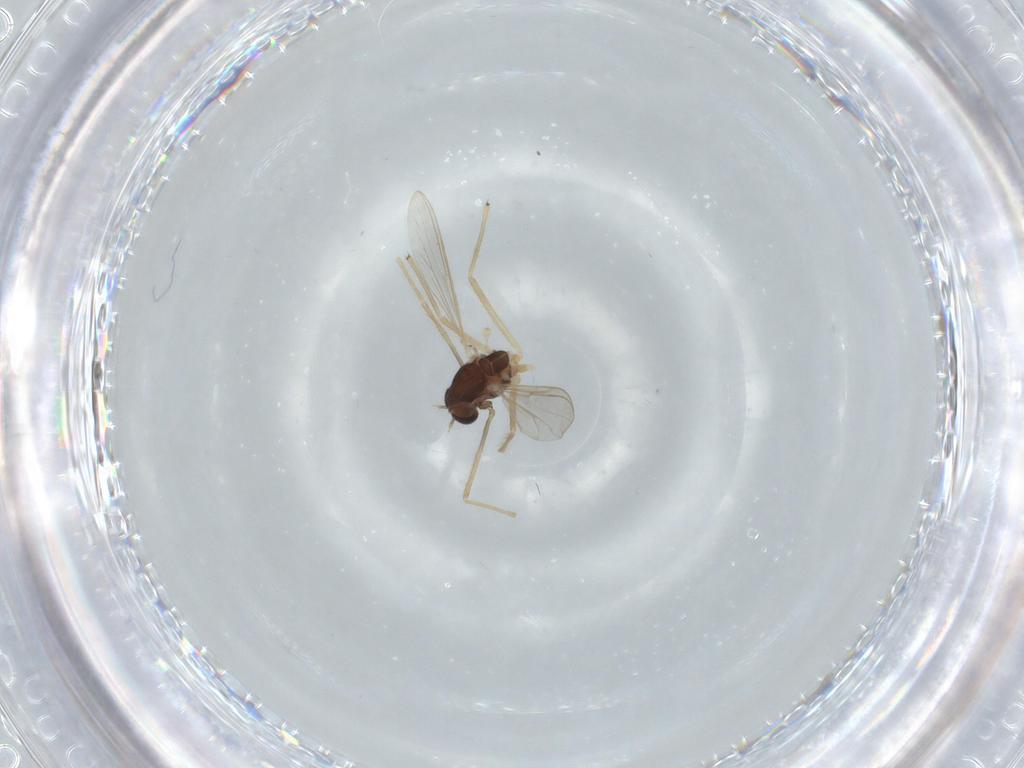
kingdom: Animalia
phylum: Arthropoda
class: Insecta
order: Diptera
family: Chironomidae
